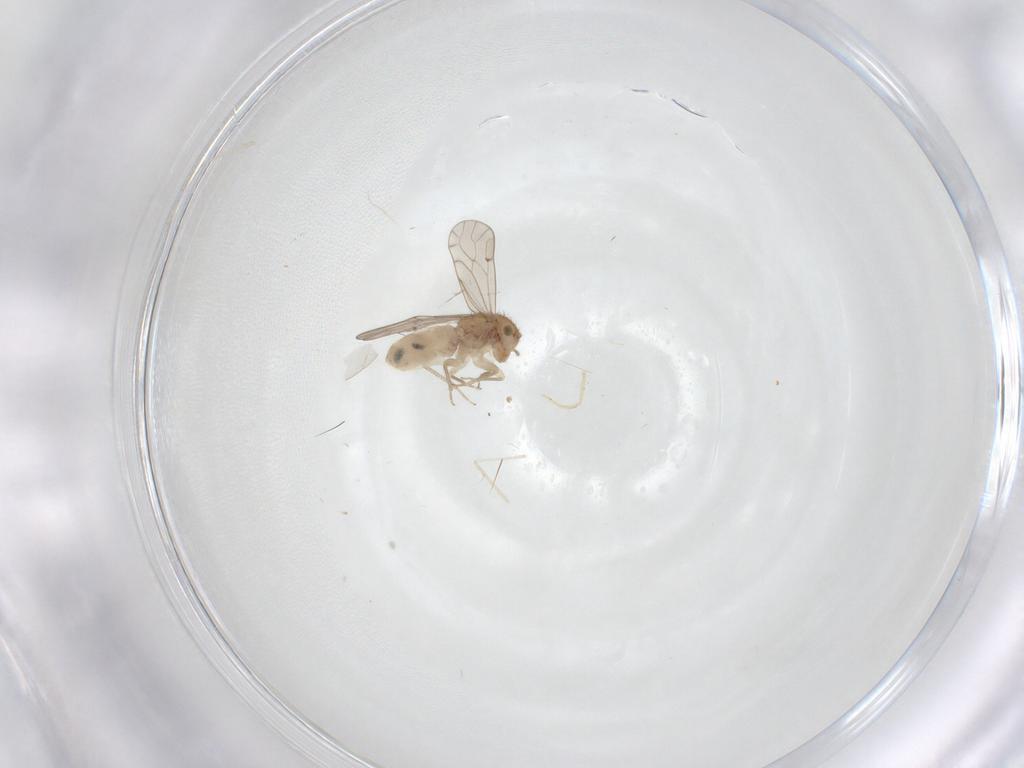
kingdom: Animalia
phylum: Arthropoda
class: Insecta
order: Psocodea
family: Ectopsocidae
